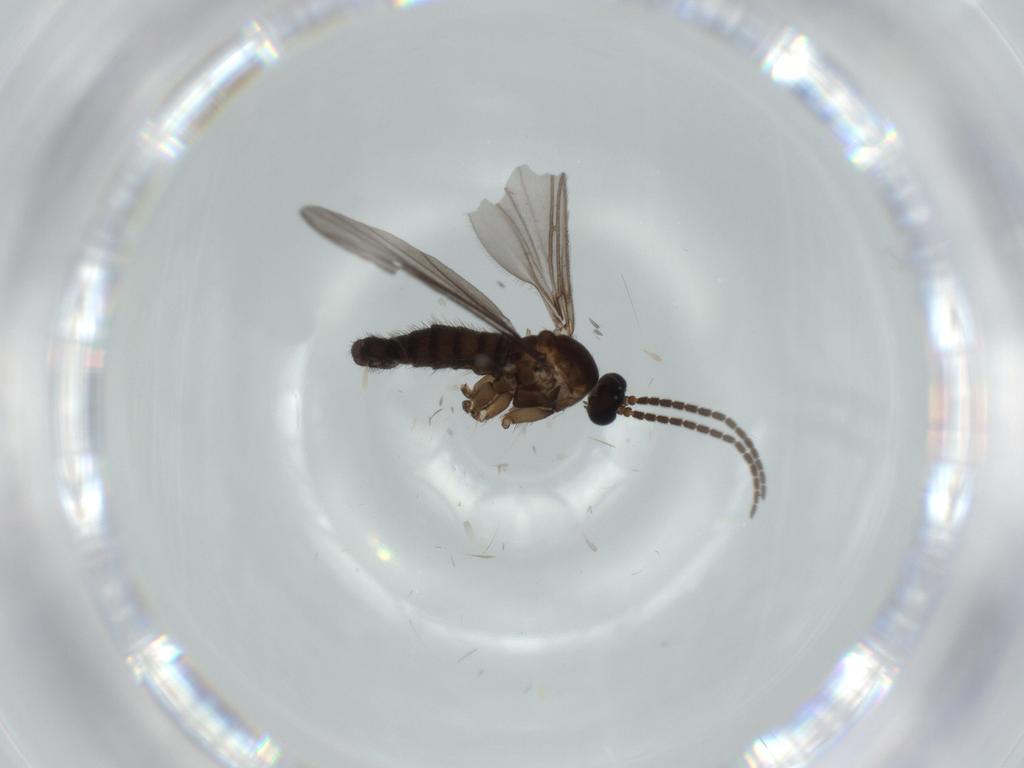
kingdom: Animalia
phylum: Arthropoda
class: Insecta
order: Diptera
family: Sciaridae
